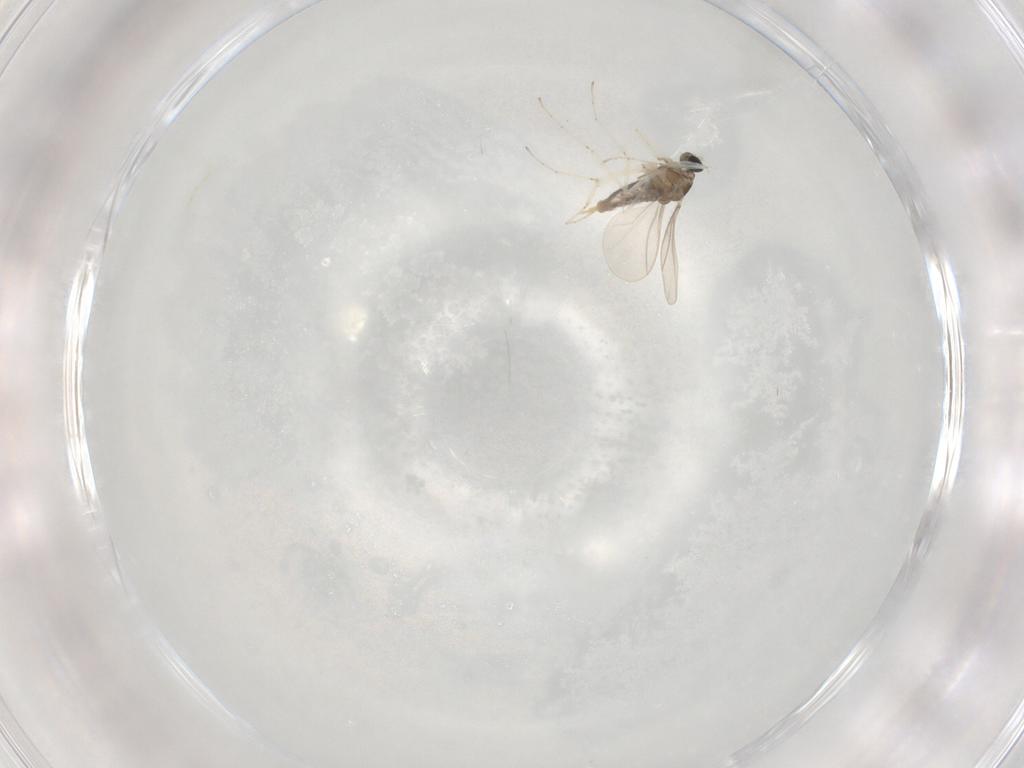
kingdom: Animalia
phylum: Arthropoda
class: Insecta
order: Diptera
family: Cecidomyiidae
